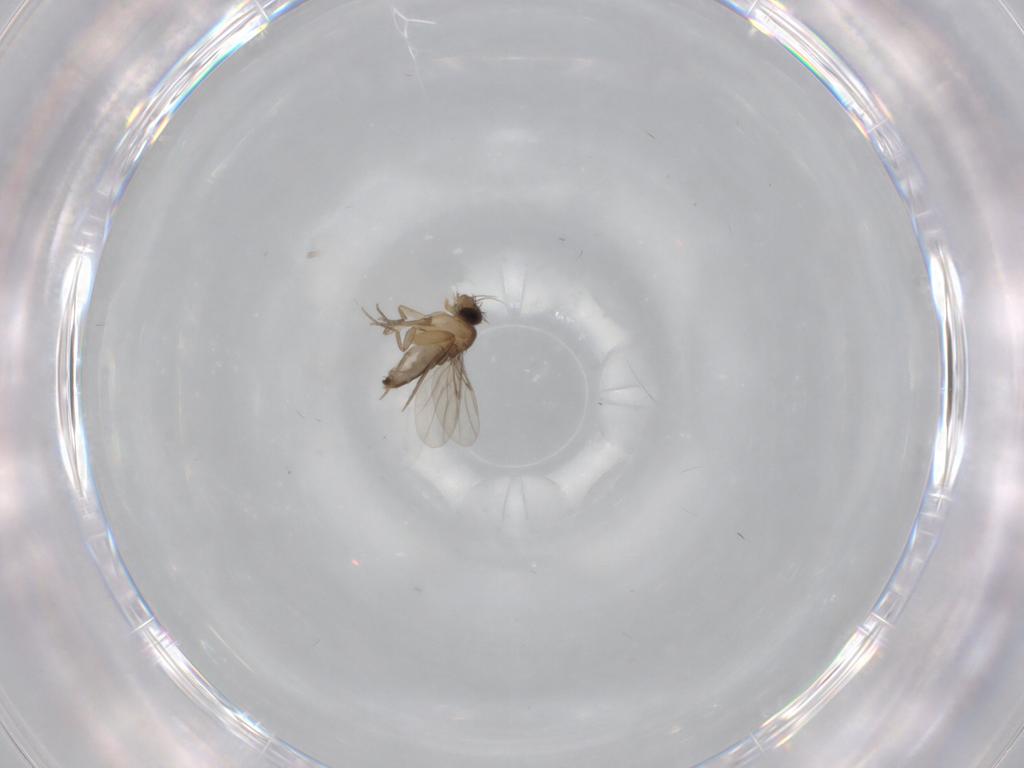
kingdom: Animalia
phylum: Arthropoda
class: Insecta
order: Diptera
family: Phoridae
